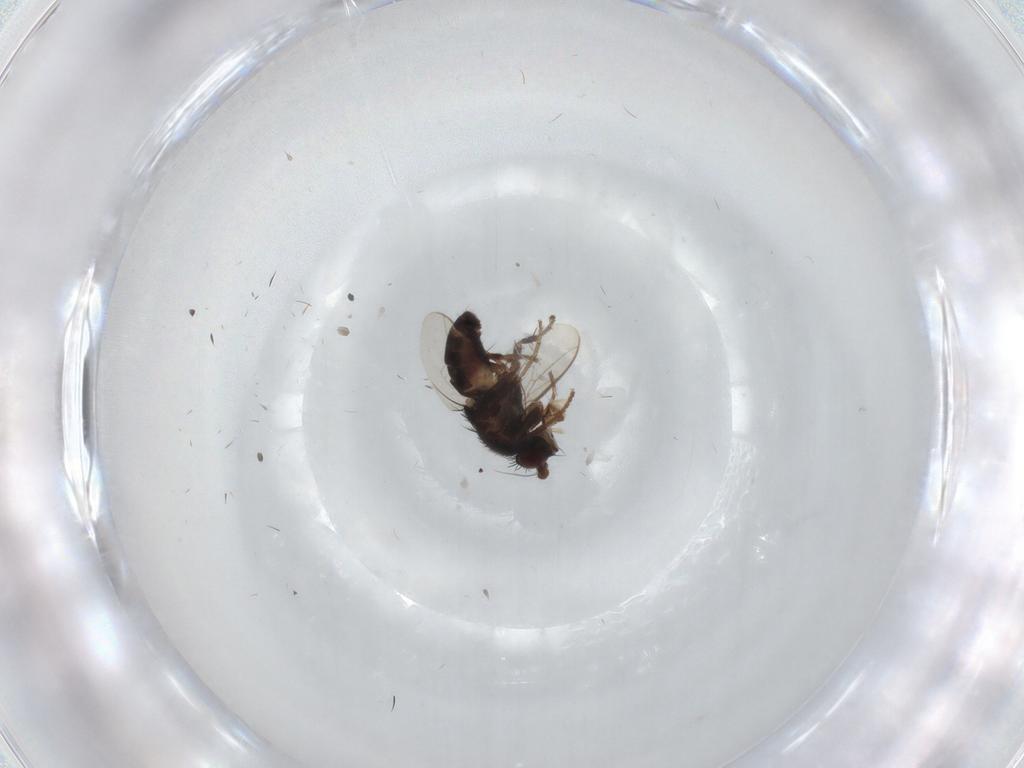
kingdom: Animalia
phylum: Arthropoda
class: Insecta
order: Diptera
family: Sphaeroceridae
